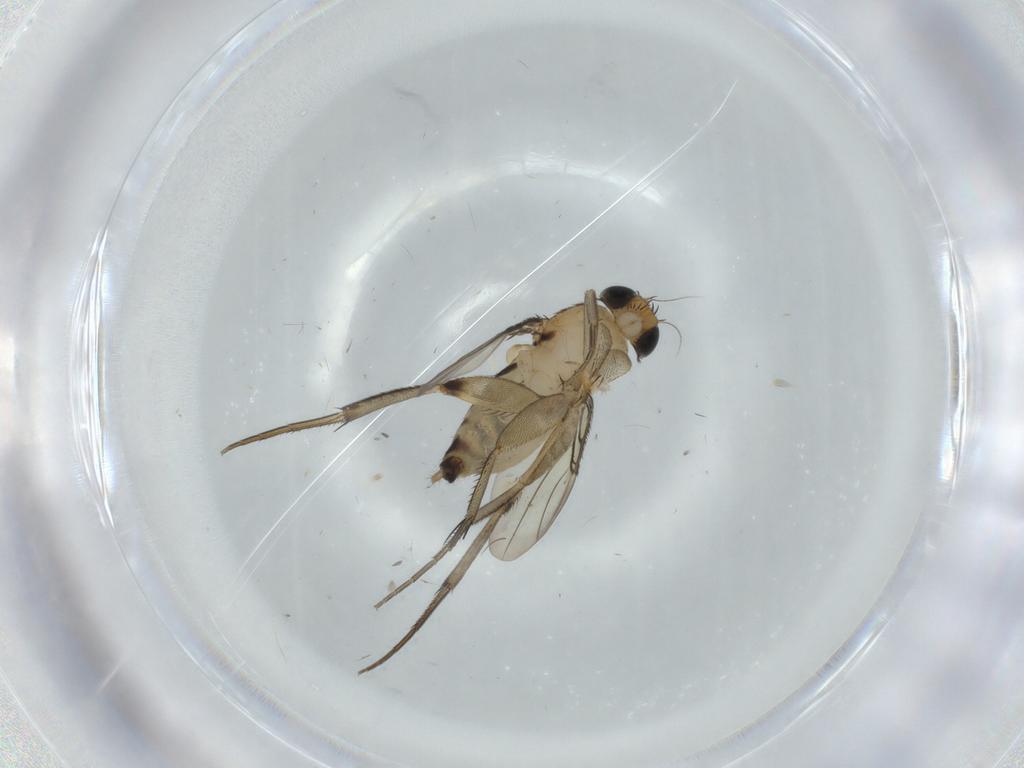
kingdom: Animalia
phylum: Arthropoda
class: Insecta
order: Diptera
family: Phoridae
